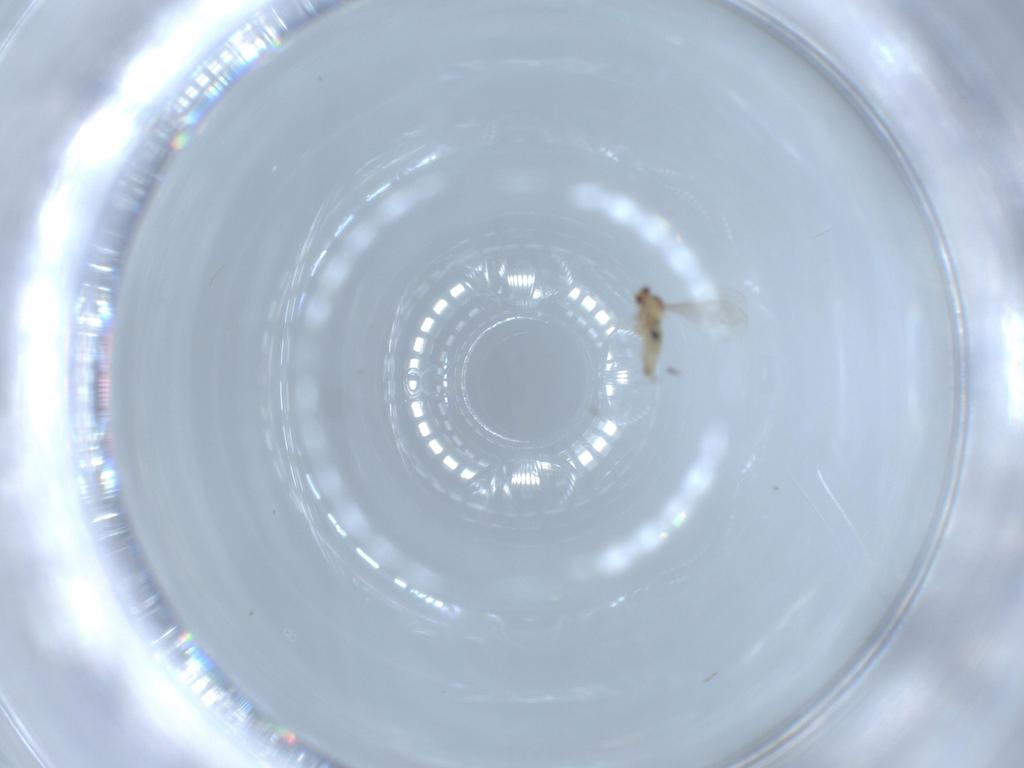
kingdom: Animalia
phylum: Arthropoda
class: Insecta
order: Diptera
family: Cecidomyiidae
